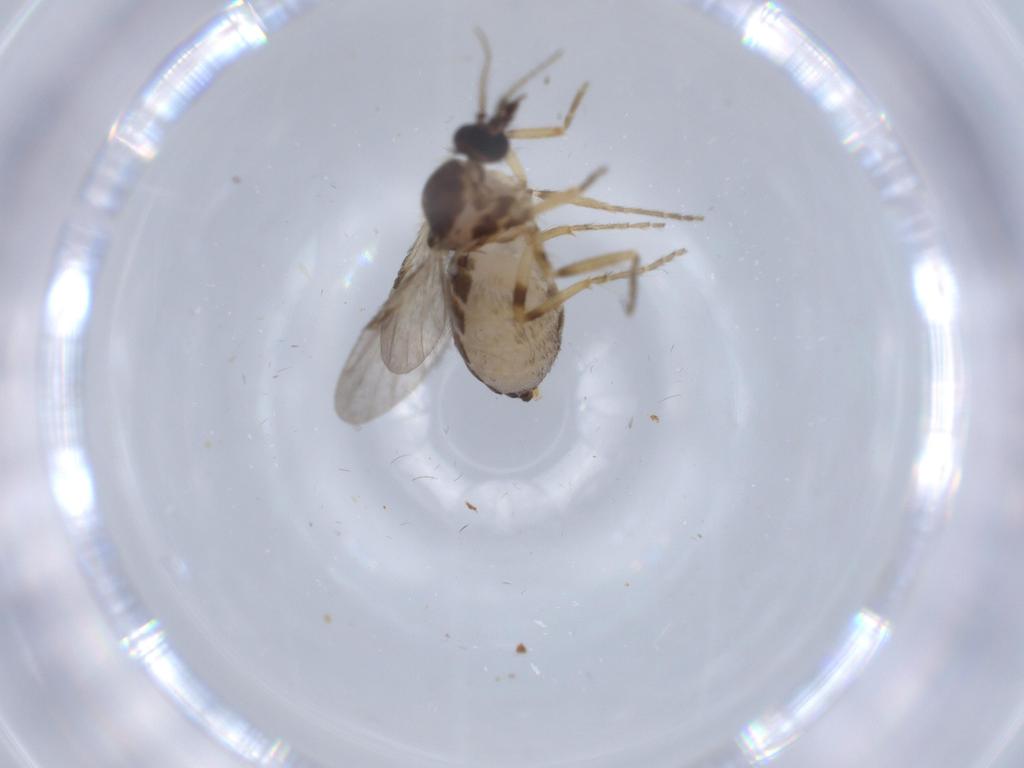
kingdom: Animalia
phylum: Arthropoda
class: Insecta
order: Diptera
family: Ceratopogonidae
